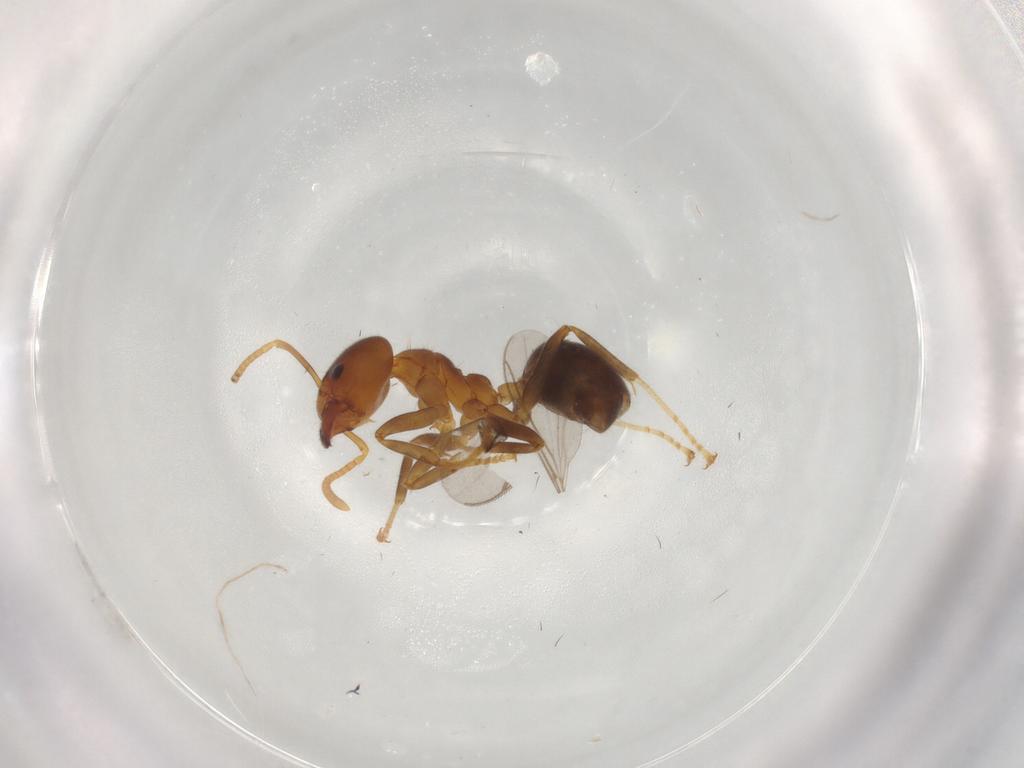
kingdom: Animalia
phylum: Arthropoda
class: Insecta
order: Hymenoptera
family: Formicidae
